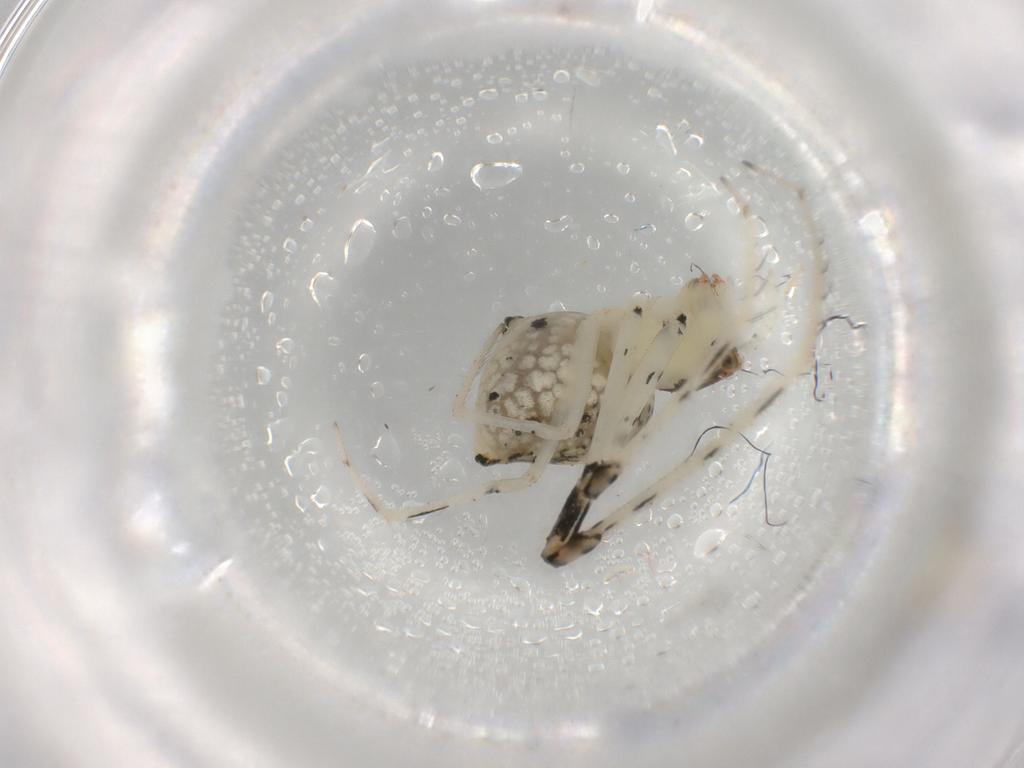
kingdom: Animalia
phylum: Arthropoda
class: Arachnida
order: Araneae
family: Mimetidae
